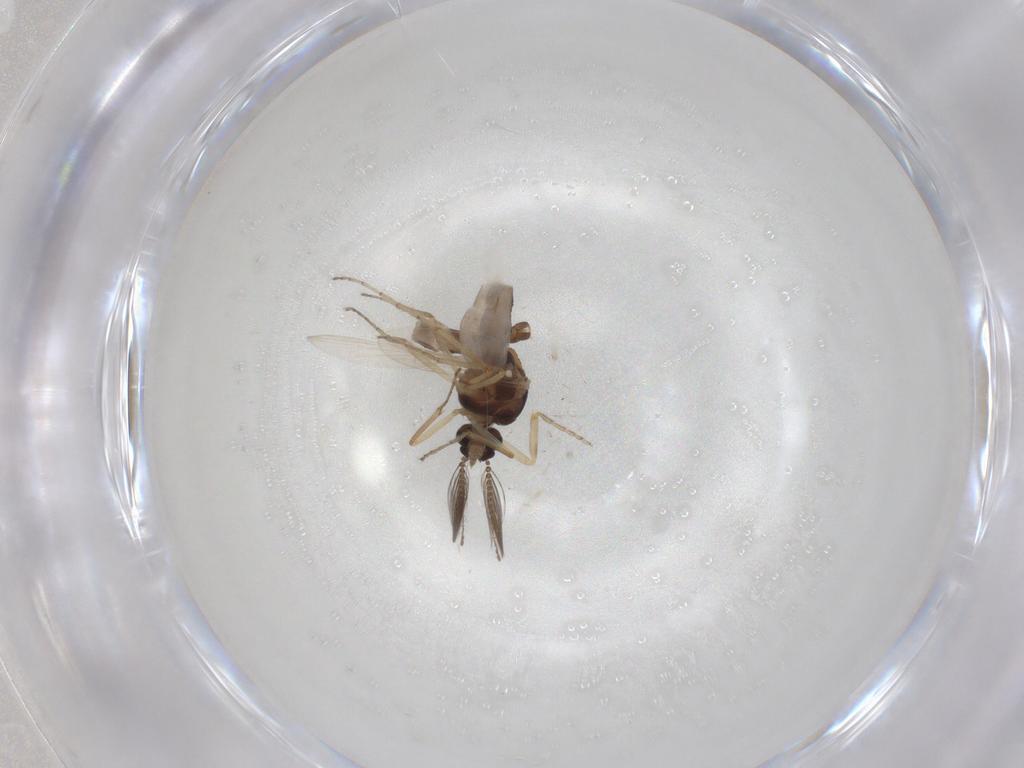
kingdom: Animalia
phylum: Arthropoda
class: Insecta
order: Diptera
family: Ceratopogonidae
